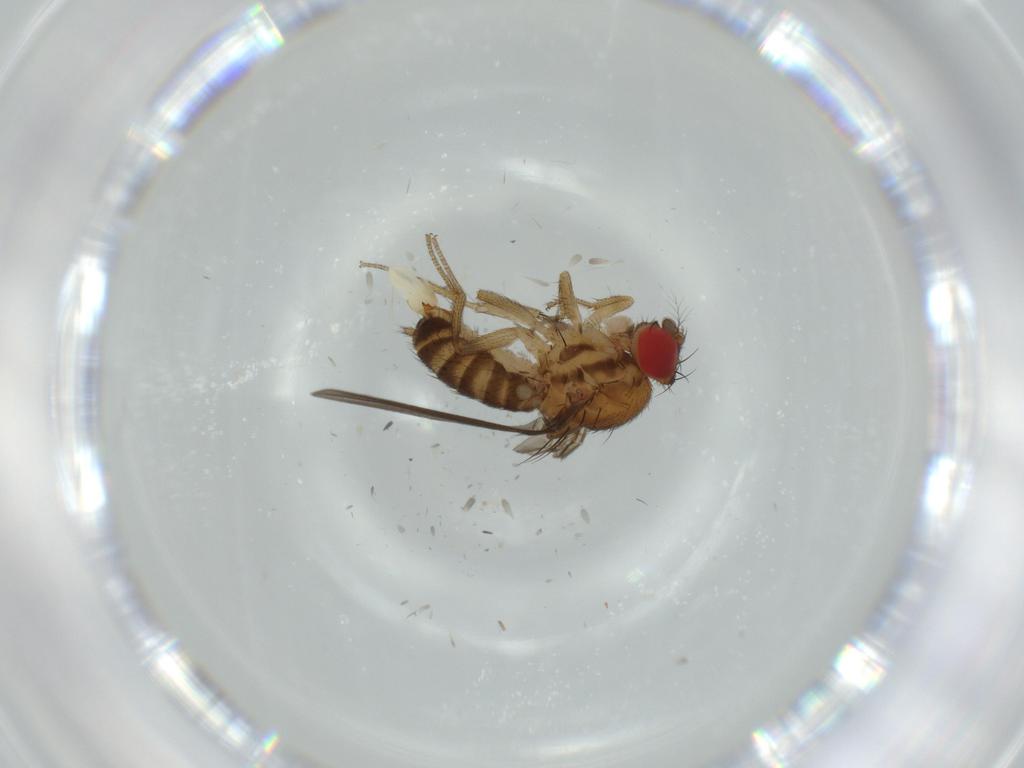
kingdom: Animalia
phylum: Arthropoda
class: Insecta
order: Diptera
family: Drosophilidae
